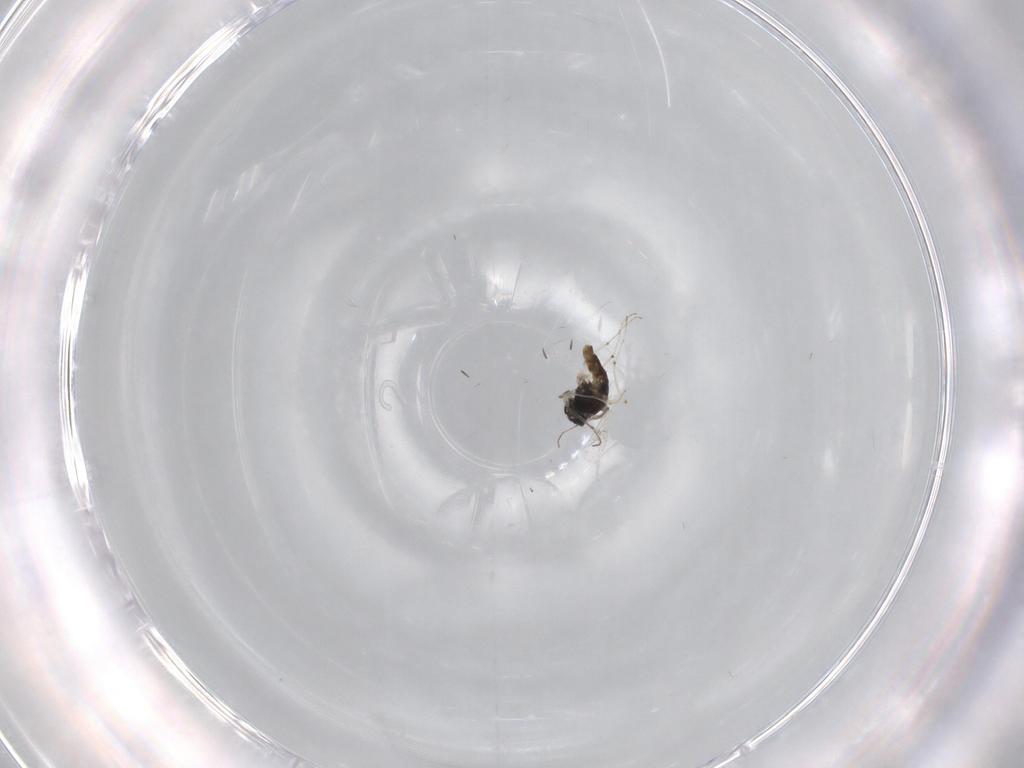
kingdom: Animalia
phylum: Arthropoda
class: Insecta
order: Diptera
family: Chironomidae
